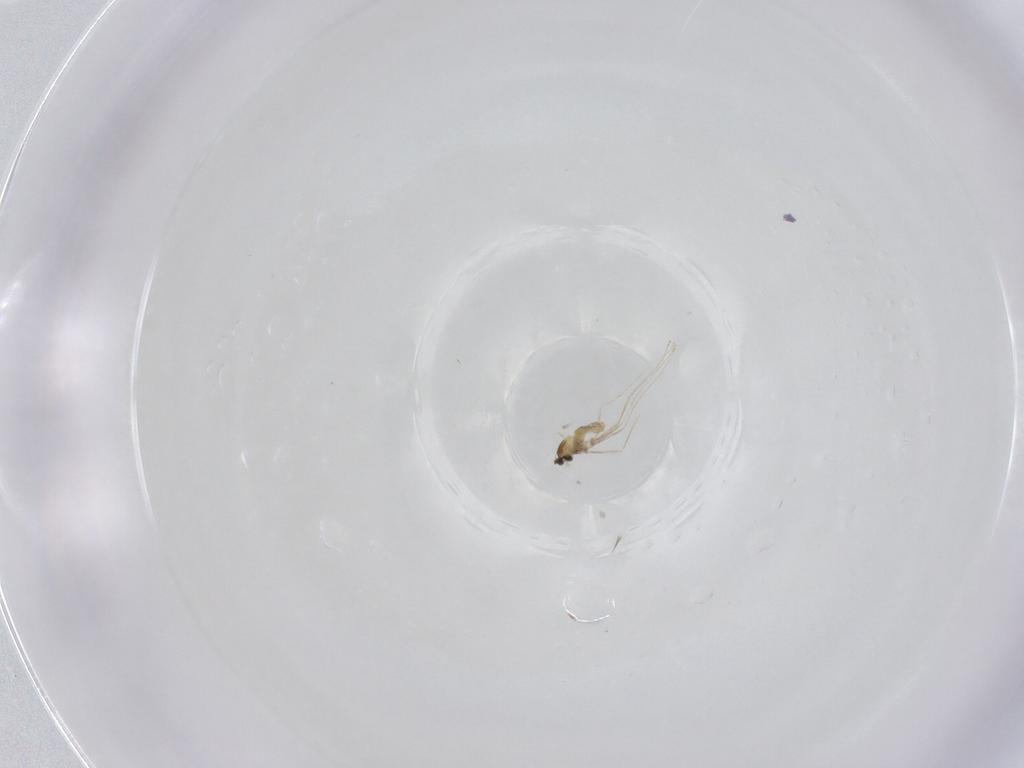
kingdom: Animalia
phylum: Arthropoda
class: Insecta
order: Diptera
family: Cecidomyiidae
